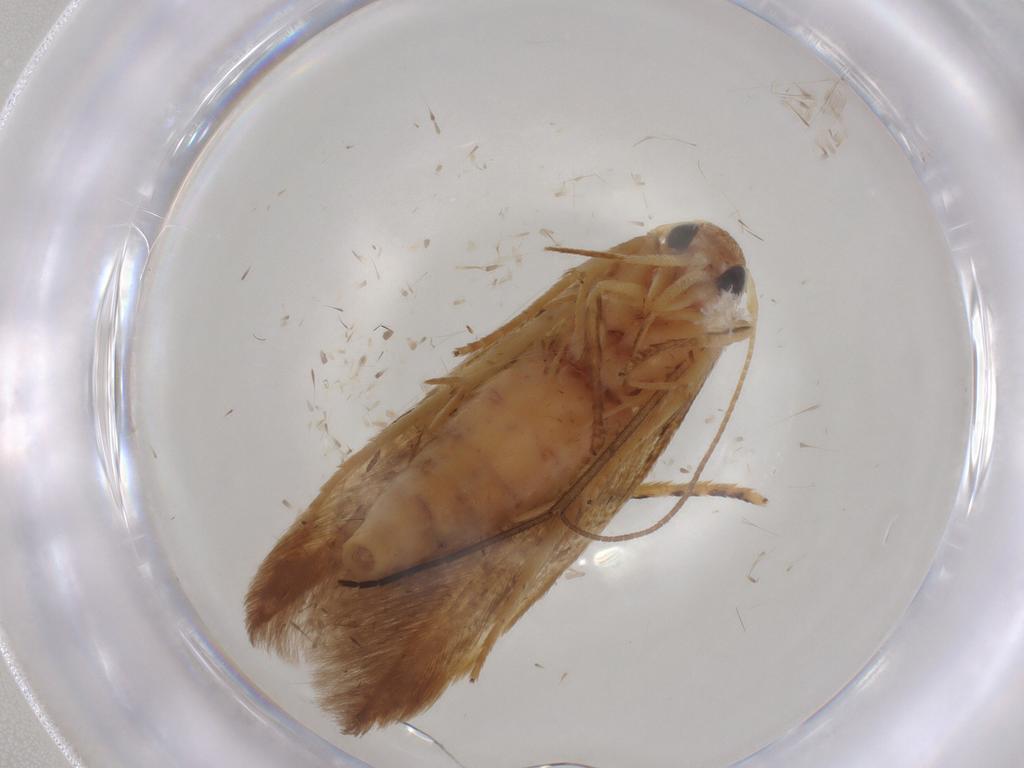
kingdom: Animalia
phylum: Arthropoda
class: Insecta
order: Lepidoptera
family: Stathmopodidae
